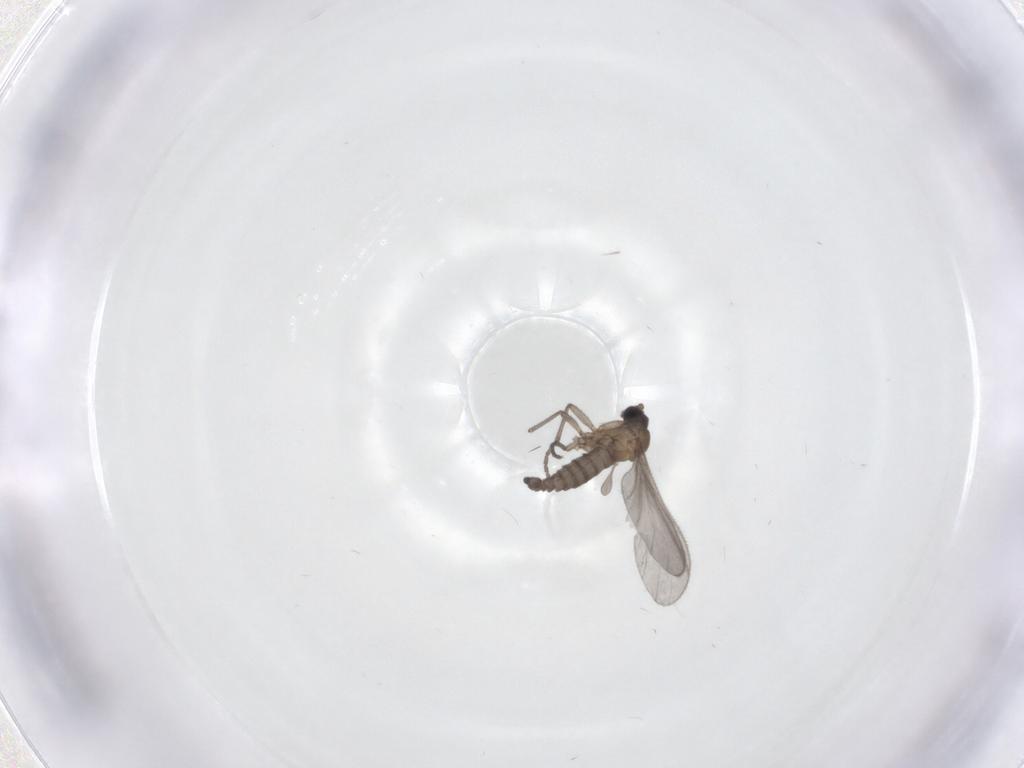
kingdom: Animalia
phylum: Arthropoda
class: Insecta
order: Diptera
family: Sciaridae
